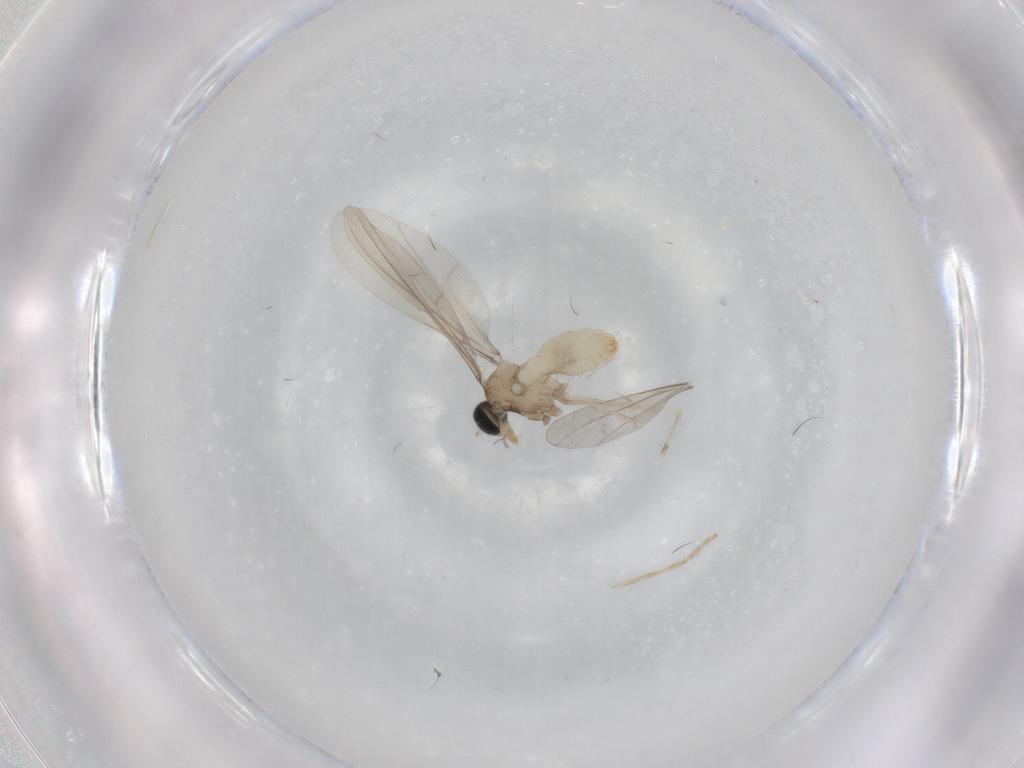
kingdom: Animalia
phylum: Arthropoda
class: Insecta
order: Diptera
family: Cecidomyiidae
